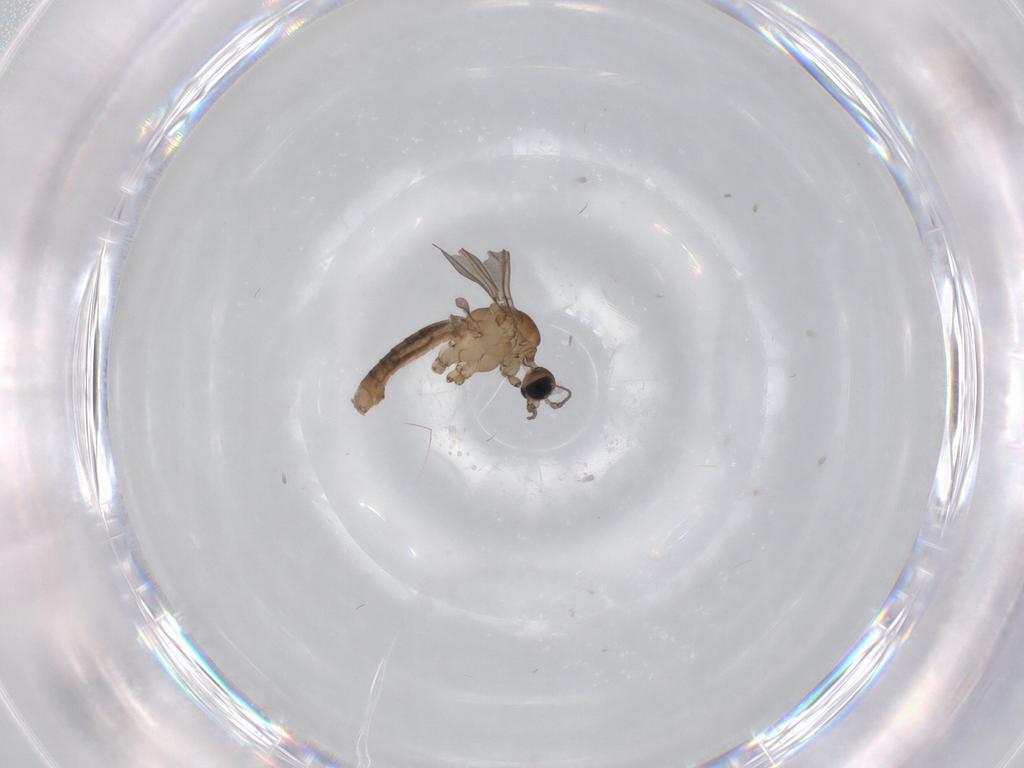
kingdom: Animalia
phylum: Arthropoda
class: Insecta
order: Diptera
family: Limoniidae
